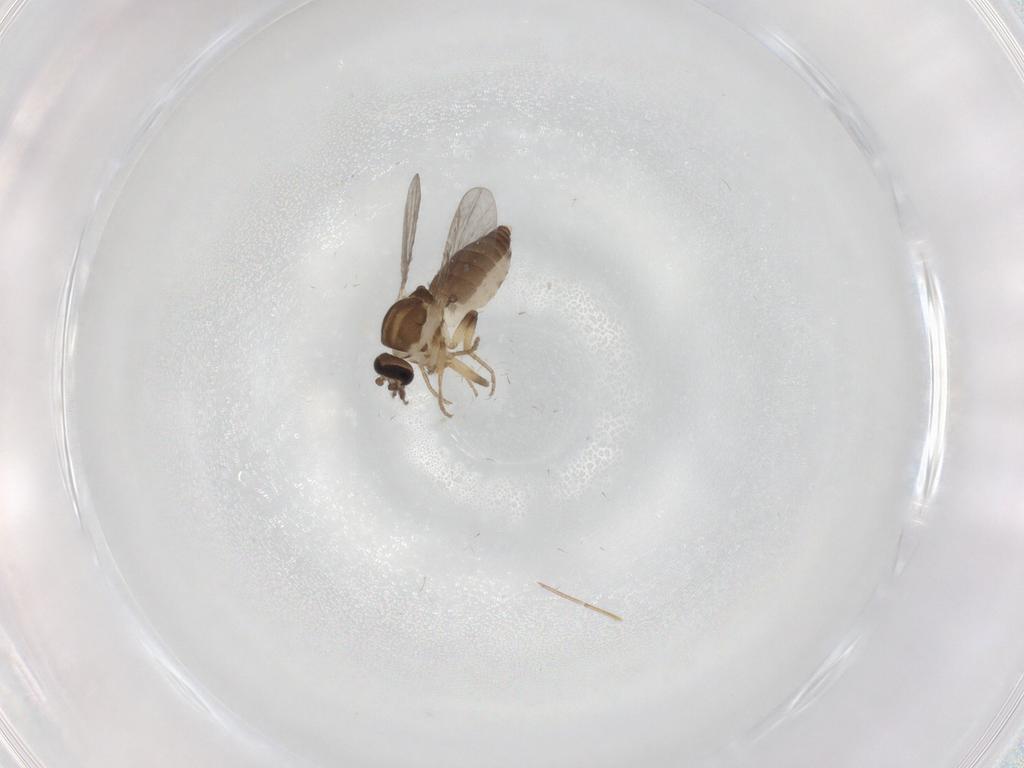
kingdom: Animalia
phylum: Arthropoda
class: Insecta
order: Diptera
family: Ceratopogonidae
